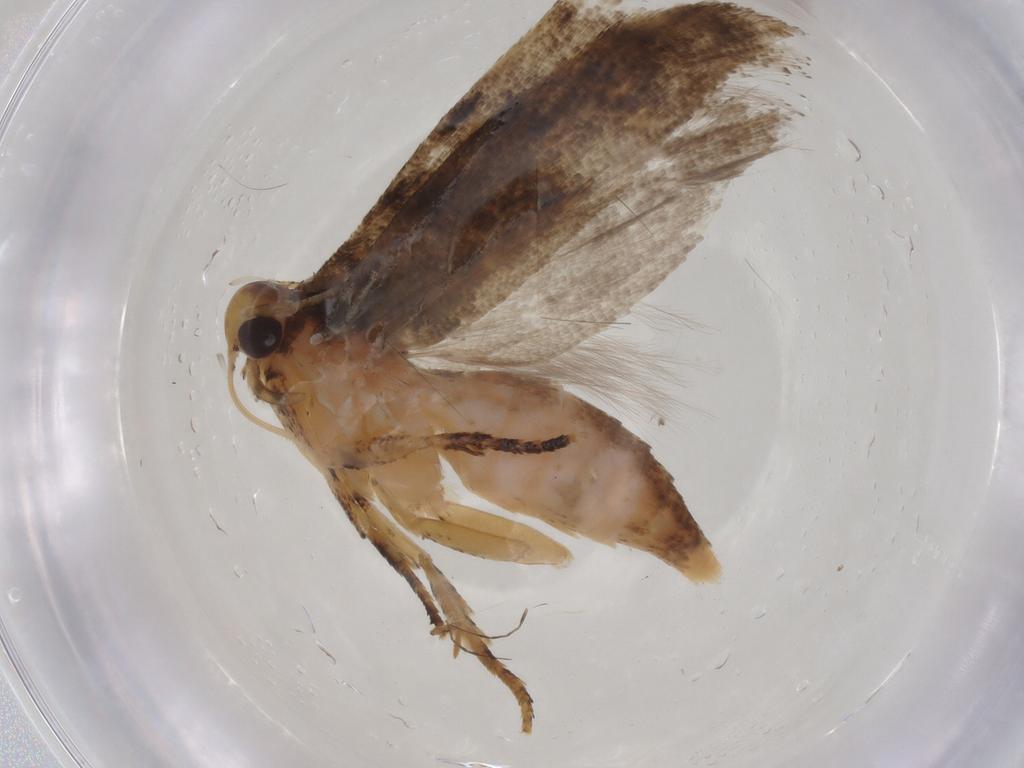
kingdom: Animalia
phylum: Arthropoda
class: Insecta
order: Lepidoptera
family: Gelechiidae
